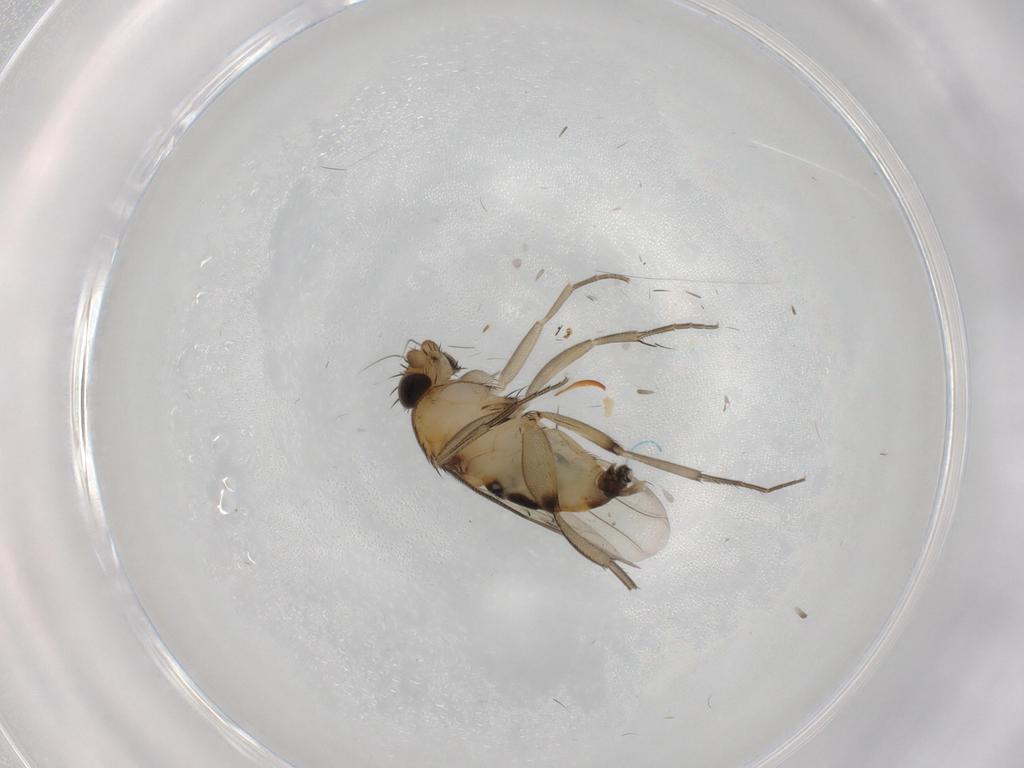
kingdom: Animalia
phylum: Arthropoda
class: Insecta
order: Diptera
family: Phoridae
